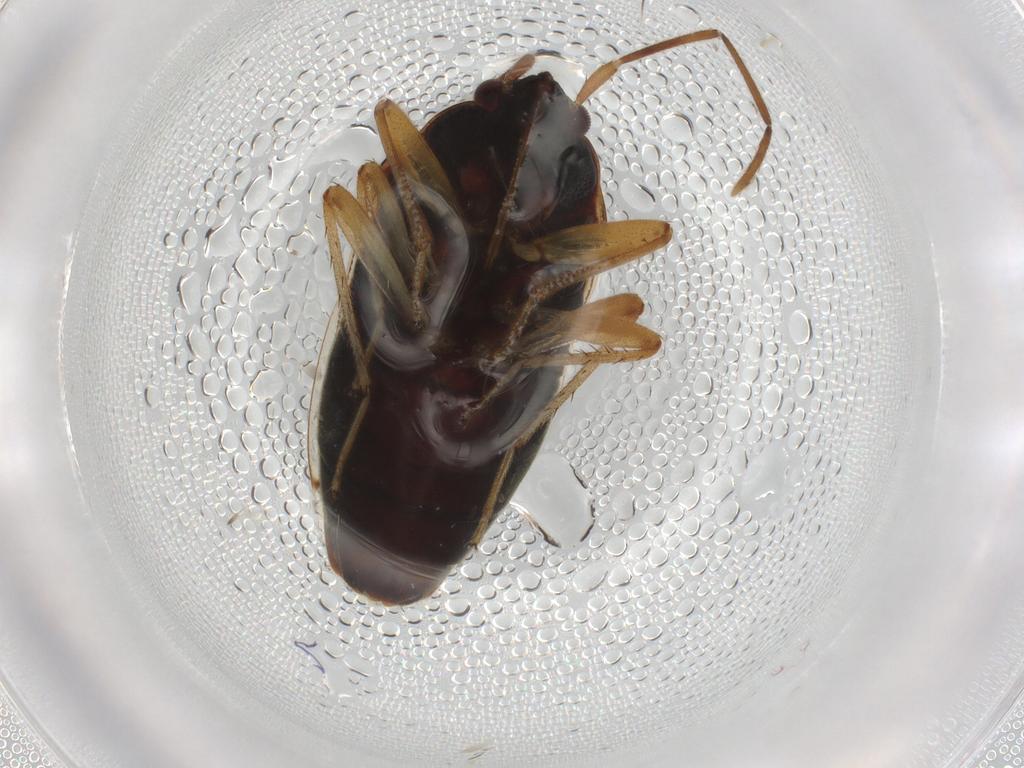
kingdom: Animalia
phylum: Arthropoda
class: Insecta
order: Hemiptera
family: Rhyparochromidae
